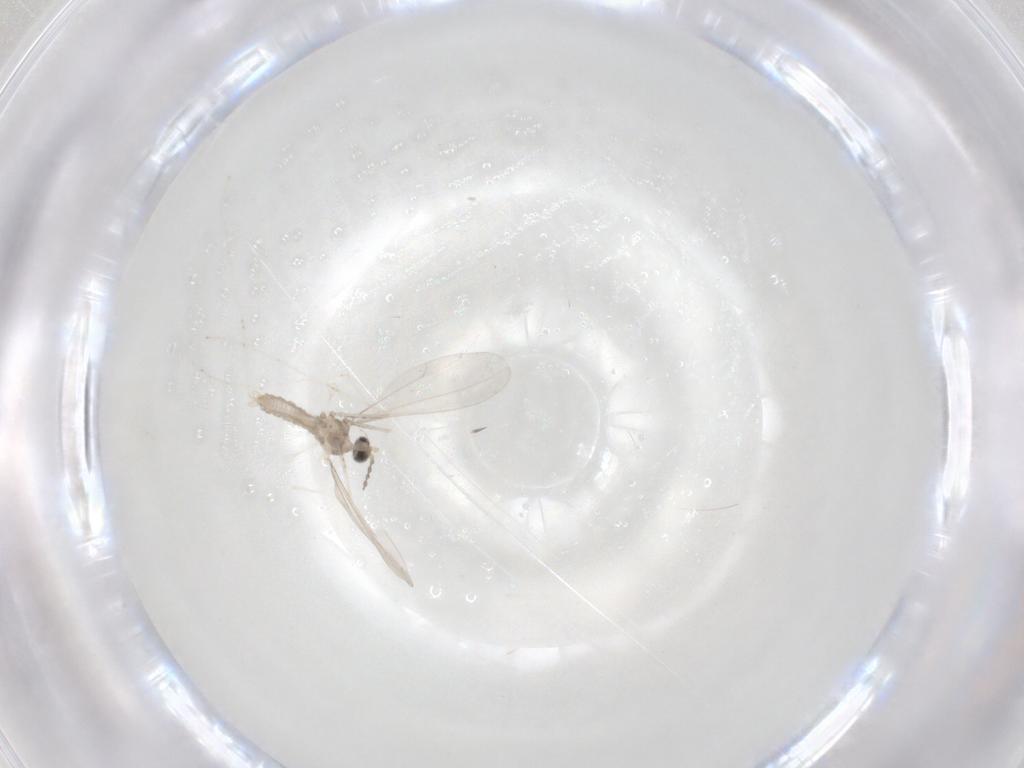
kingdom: Animalia
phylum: Arthropoda
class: Insecta
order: Diptera
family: Cecidomyiidae
